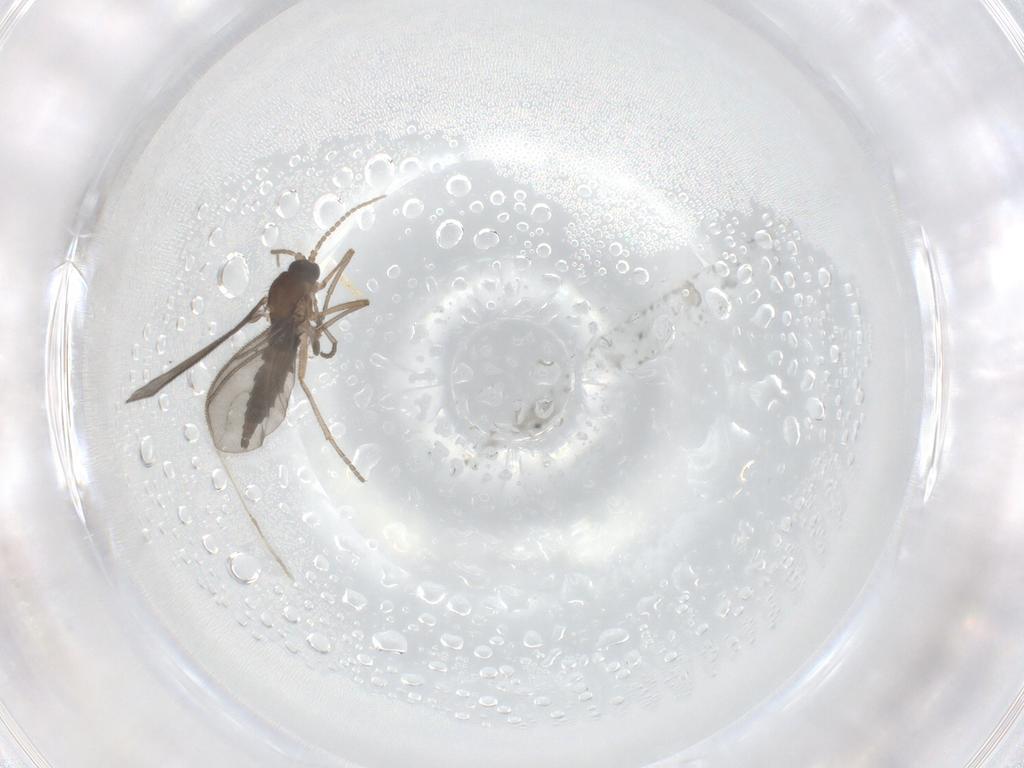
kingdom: Animalia
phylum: Arthropoda
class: Insecta
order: Diptera
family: Sciaridae
